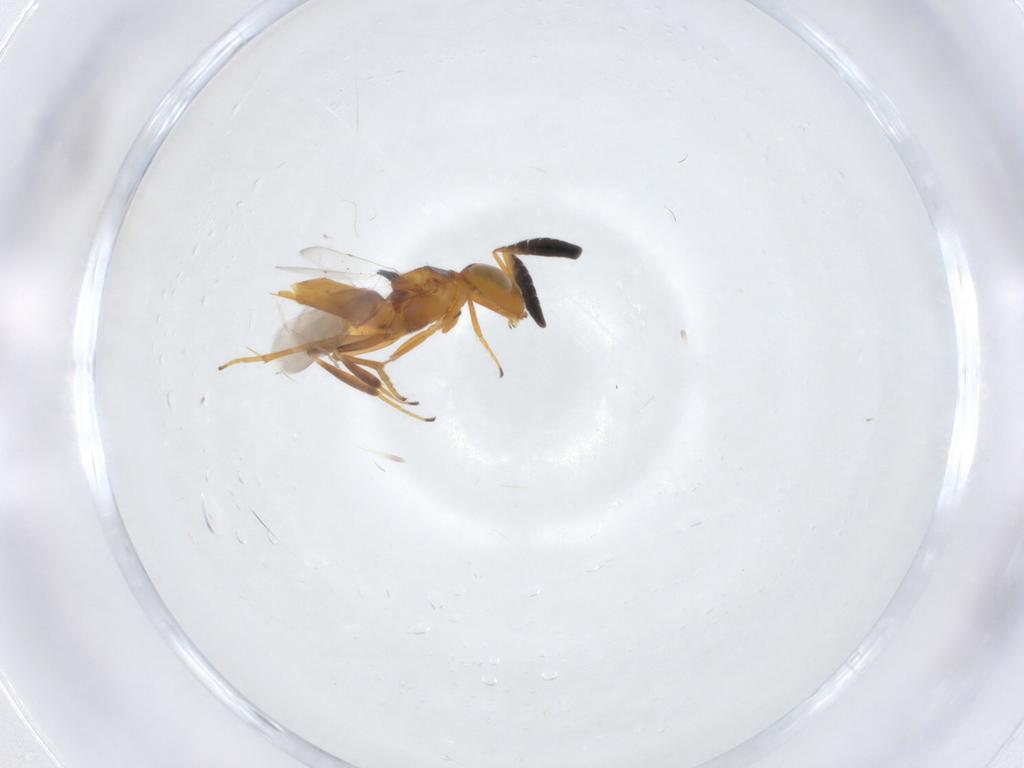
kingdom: Animalia
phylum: Arthropoda
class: Insecta
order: Hymenoptera
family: Encyrtidae
